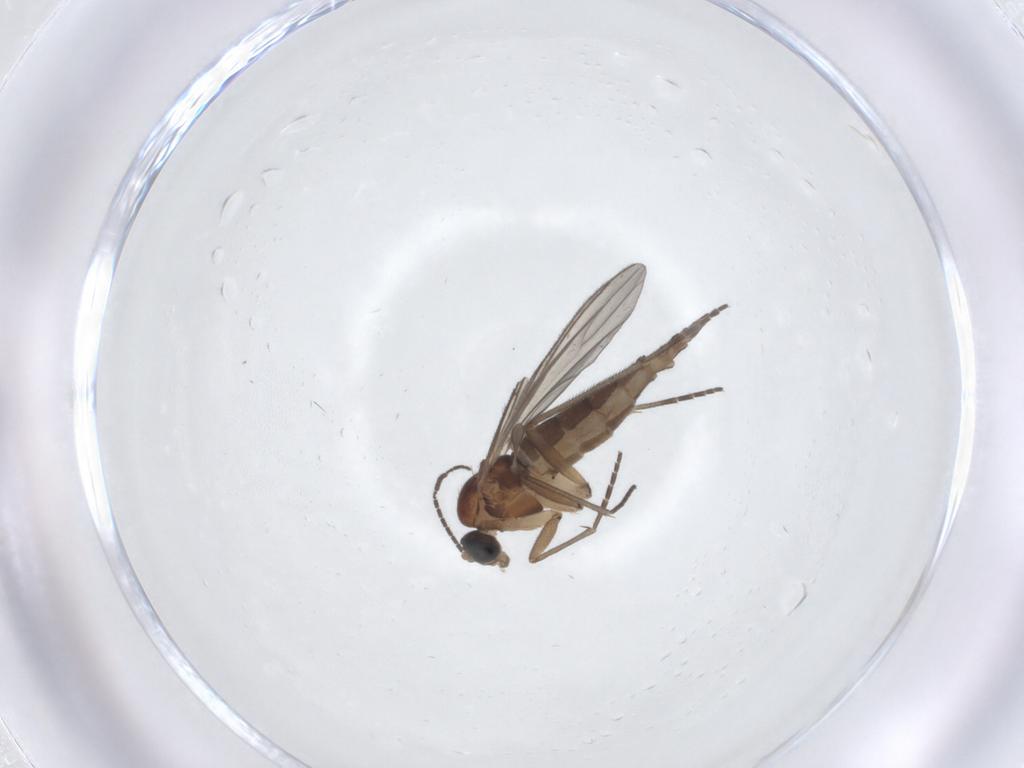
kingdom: Animalia
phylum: Arthropoda
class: Insecta
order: Diptera
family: Sciaridae
